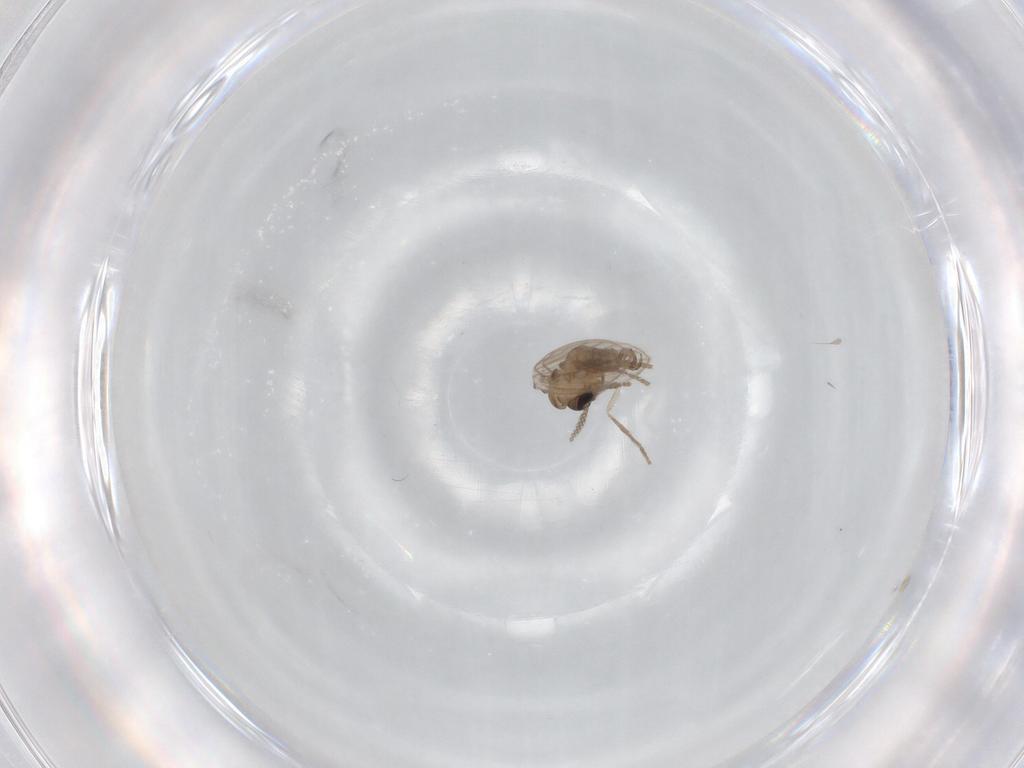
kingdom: Animalia
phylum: Arthropoda
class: Insecta
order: Diptera
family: Psychodidae
